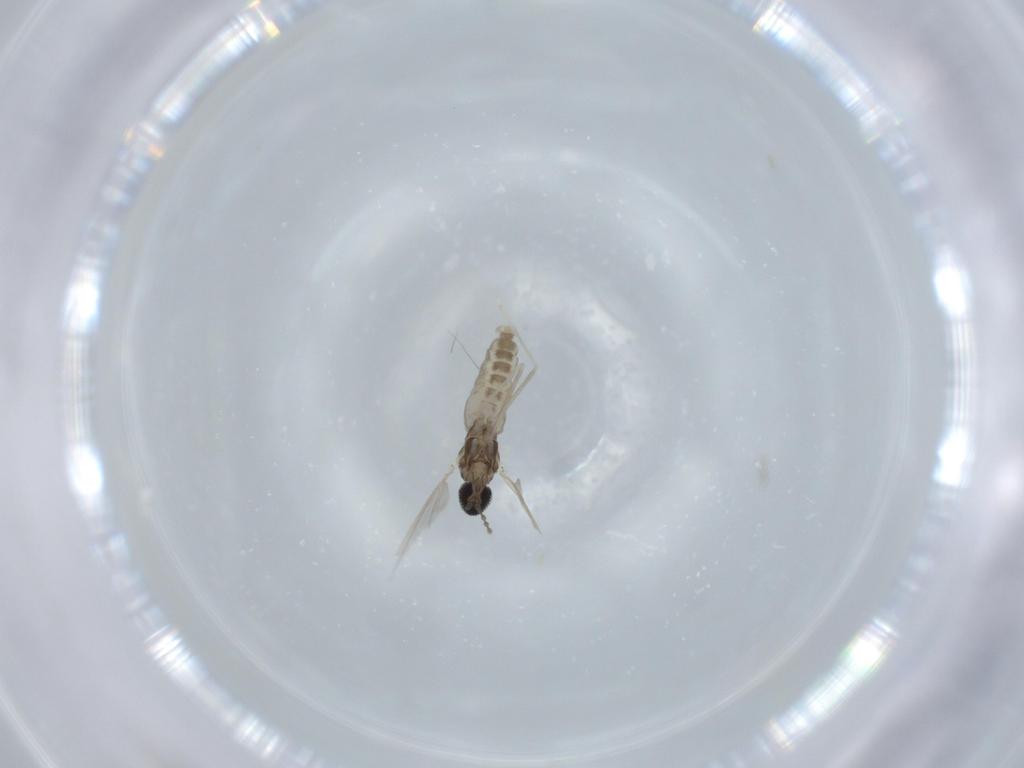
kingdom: Animalia
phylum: Arthropoda
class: Insecta
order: Diptera
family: Cecidomyiidae
